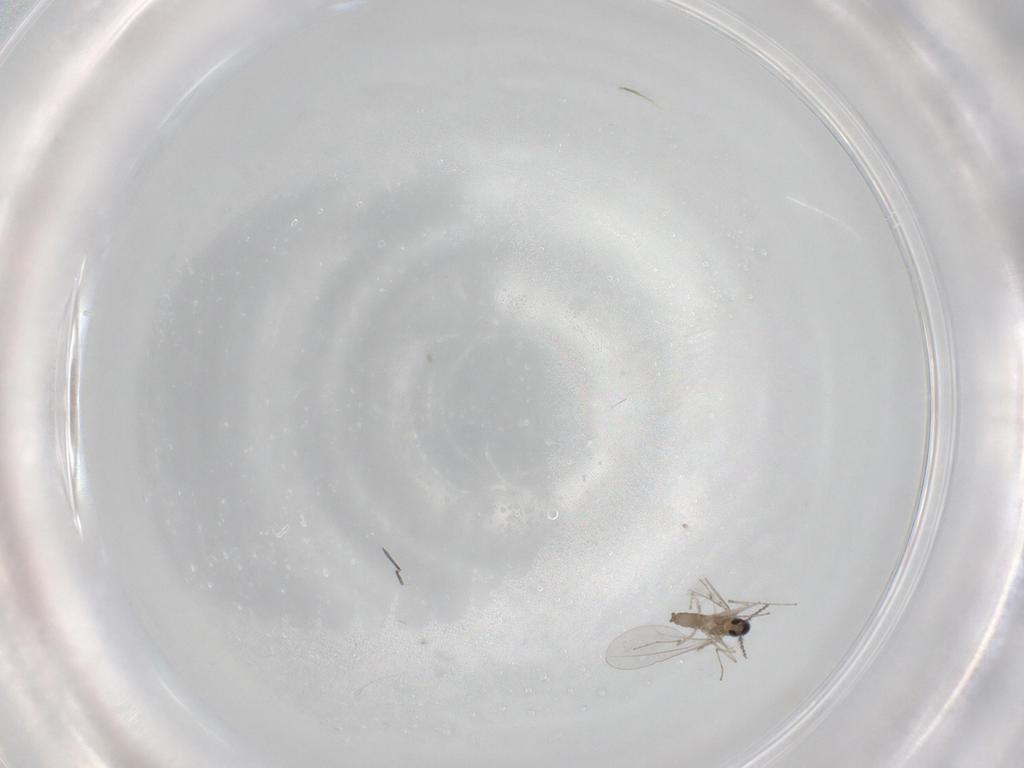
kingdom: Animalia
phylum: Arthropoda
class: Insecta
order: Diptera
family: Cecidomyiidae
